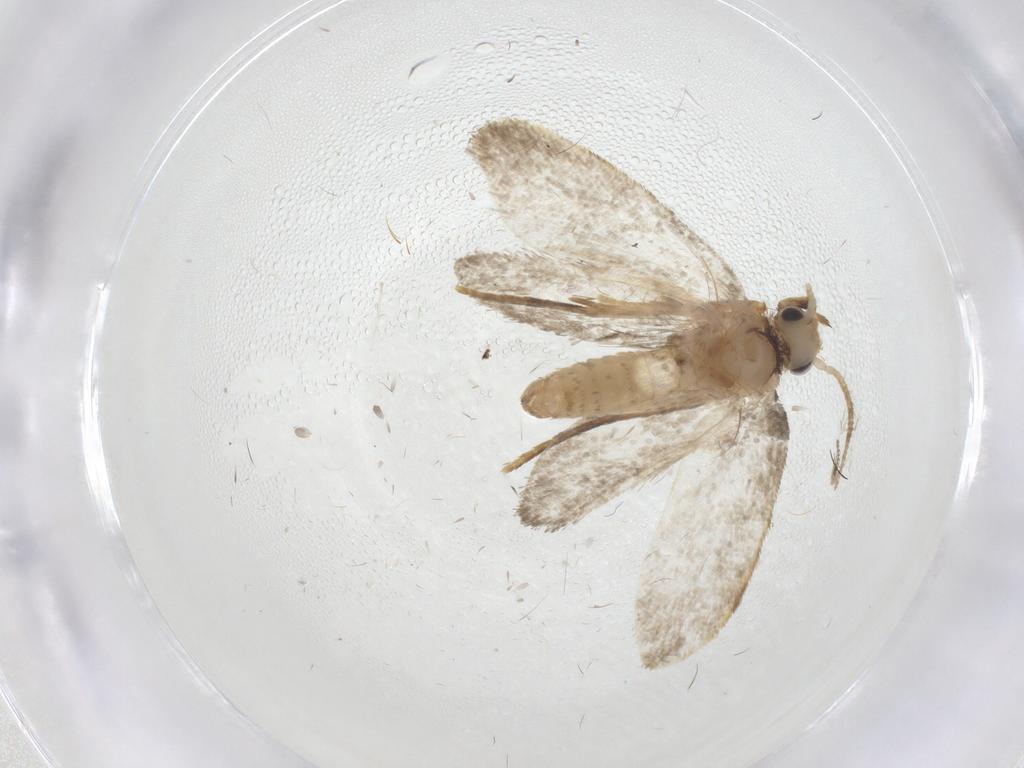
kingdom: Animalia
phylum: Arthropoda
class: Insecta
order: Lepidoptera
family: Psychidae
